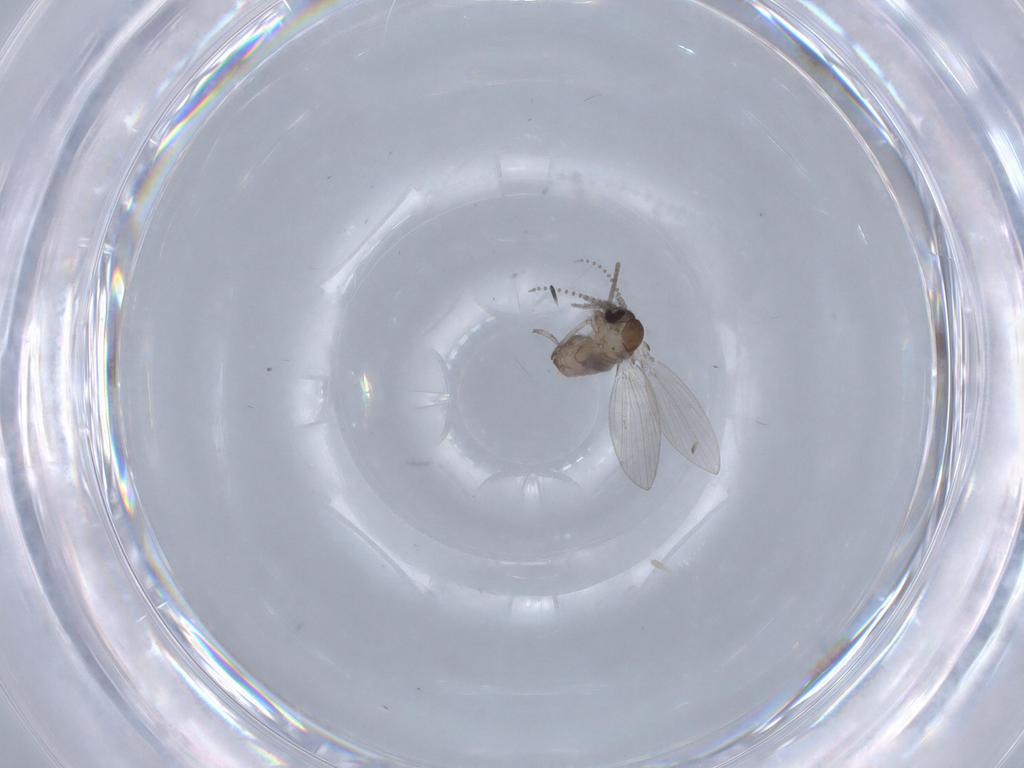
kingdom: Animalia
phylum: Arthropoda
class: Insecta
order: Diptera
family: Psychodidae
